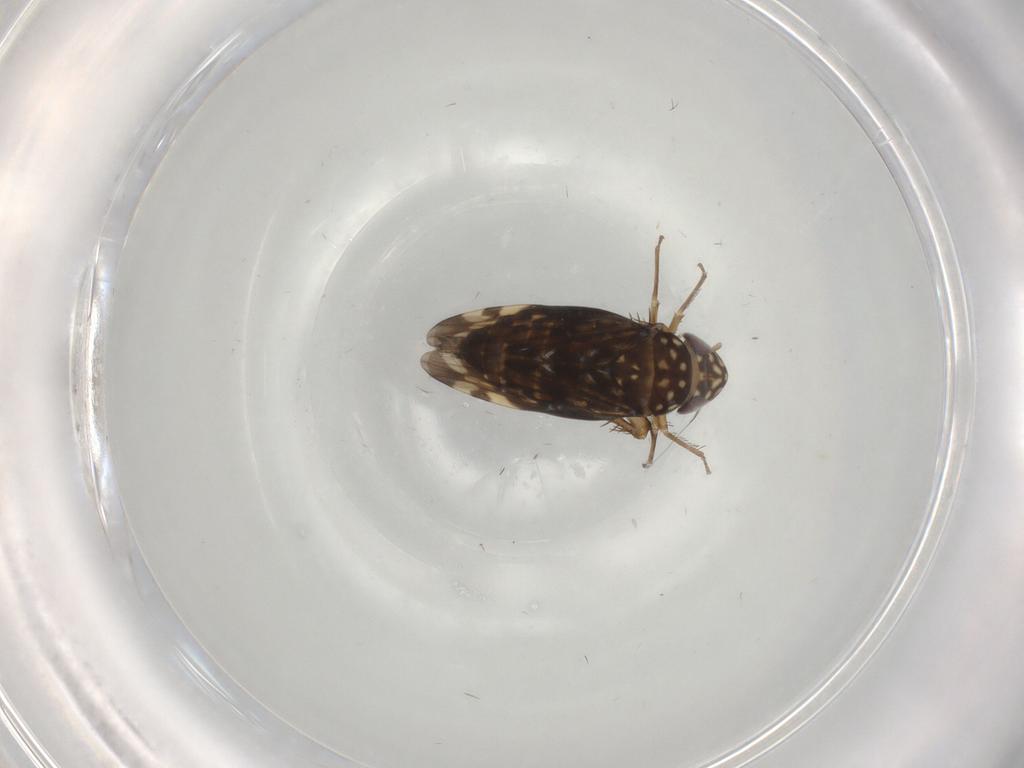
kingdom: Animalia
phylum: Arthropoda
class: Insecta
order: Hemiptera
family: Cicadellidae
